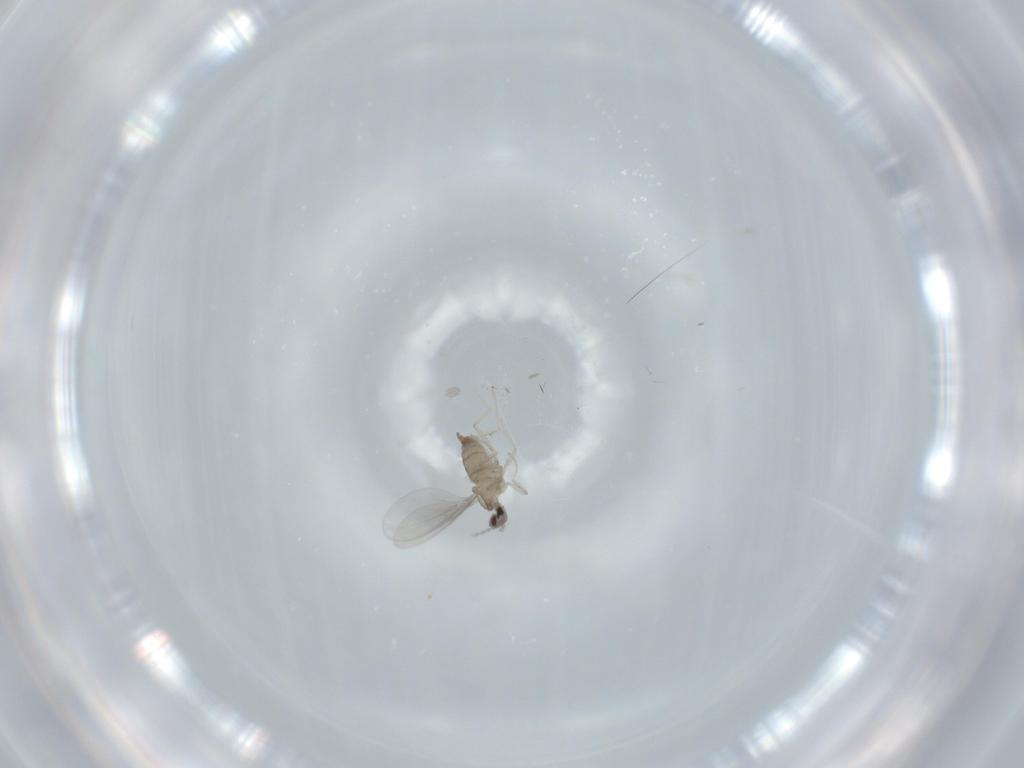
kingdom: Animalia
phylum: Arthropoda
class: Insecta
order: Diptera
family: Cecidomyiidae
